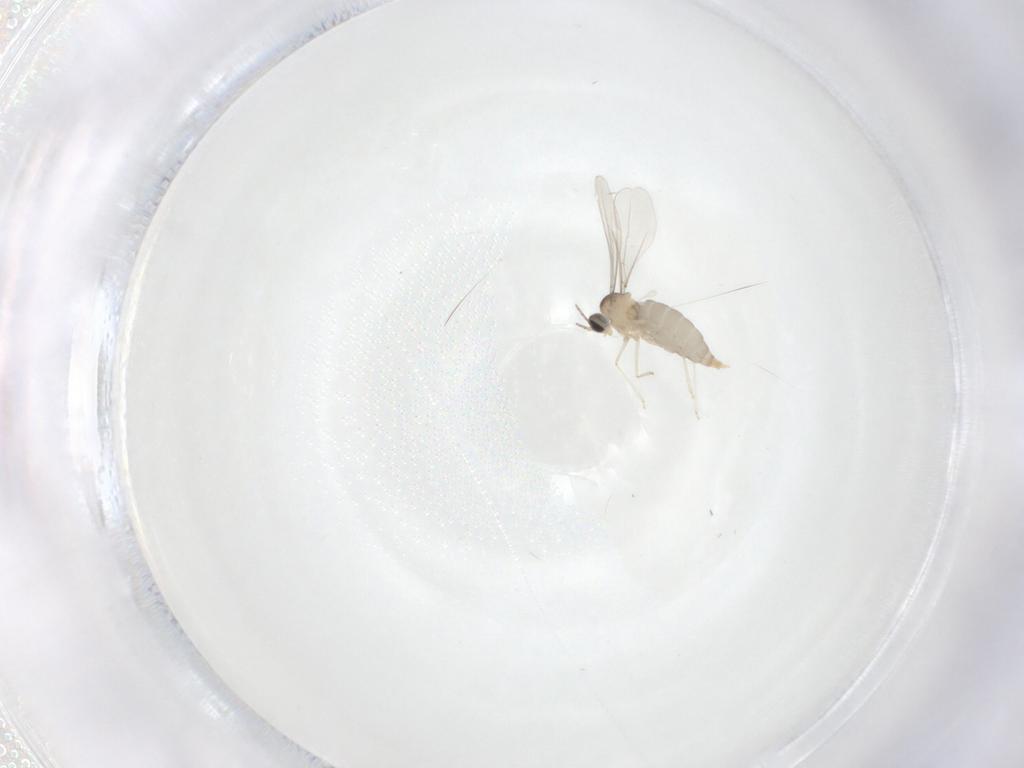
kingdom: Animalia
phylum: Arthropoda
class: Insecta
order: Diptera
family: Cecidomyiidae
